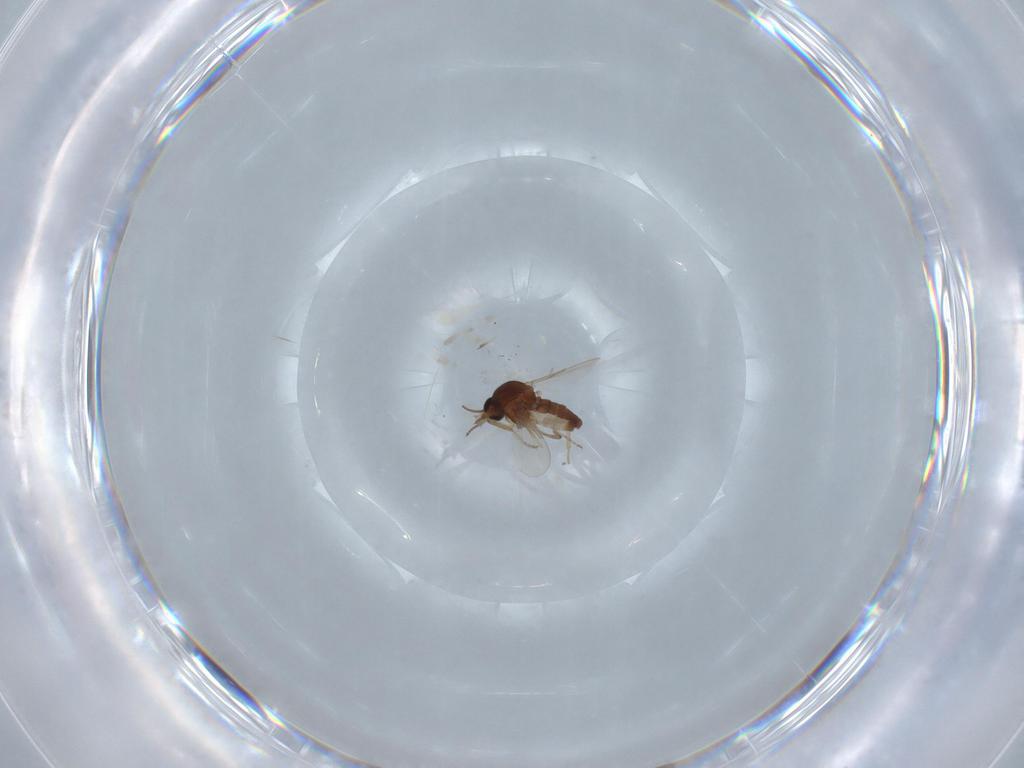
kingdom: Animalia
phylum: Arthropoda
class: Insecta
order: Diptera
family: Ceratopogonidae
